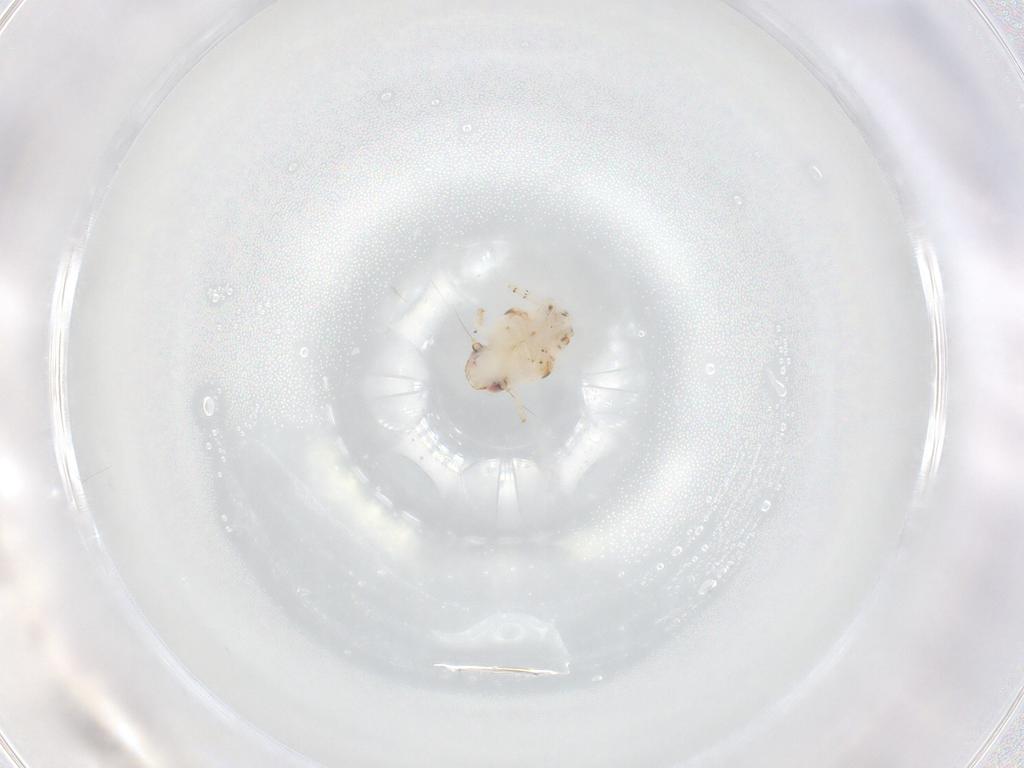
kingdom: Animalia
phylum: Arthropoda
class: Insecta
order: Hemiptera
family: Nogodinidae
